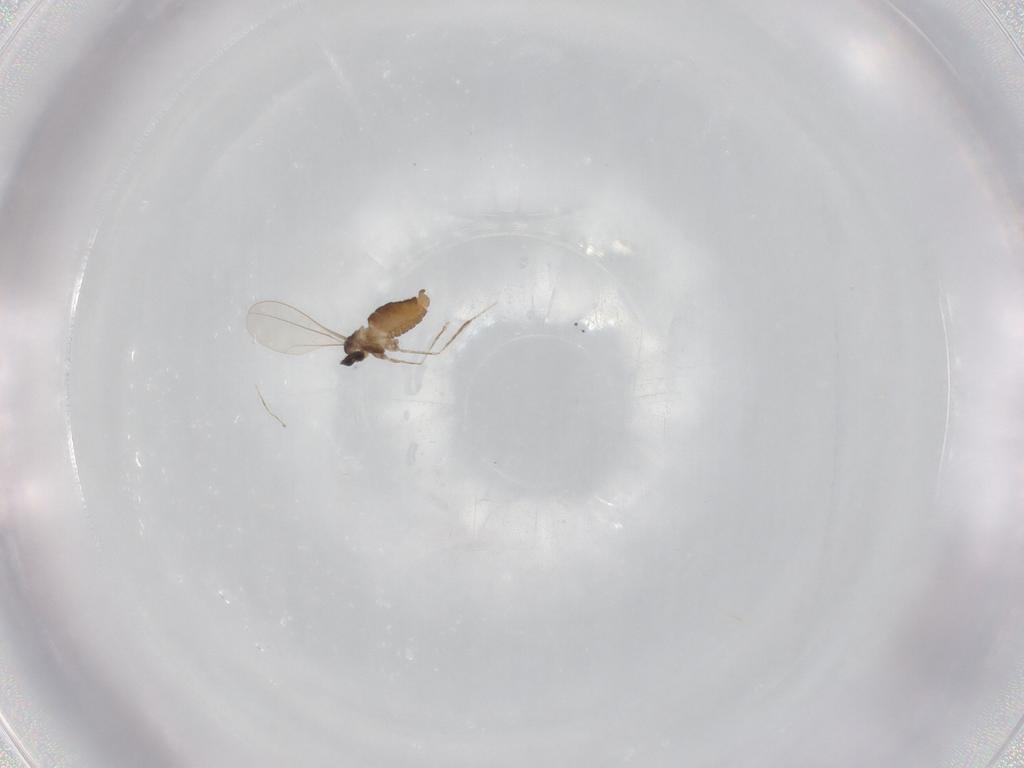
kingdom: Animalia
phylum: Arthropoda
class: Insecta
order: Diptera
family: Cecidomyiidae
